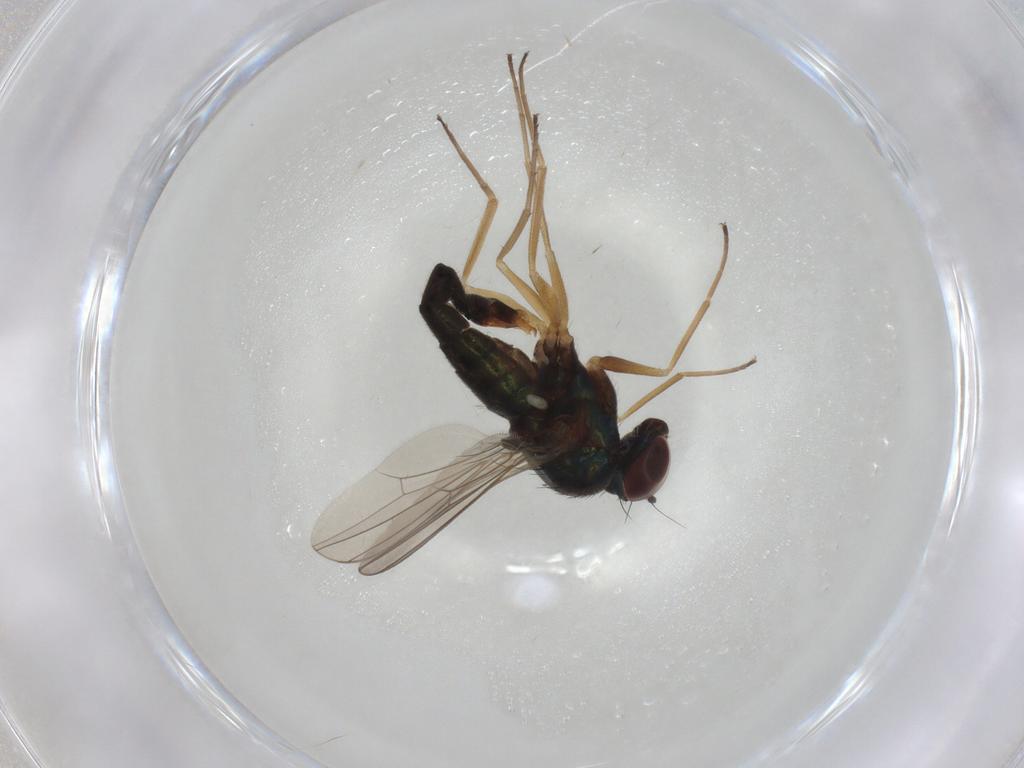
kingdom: Animalia
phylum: Arthropoda
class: Insecta
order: Diptera
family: Dolichopodidae
